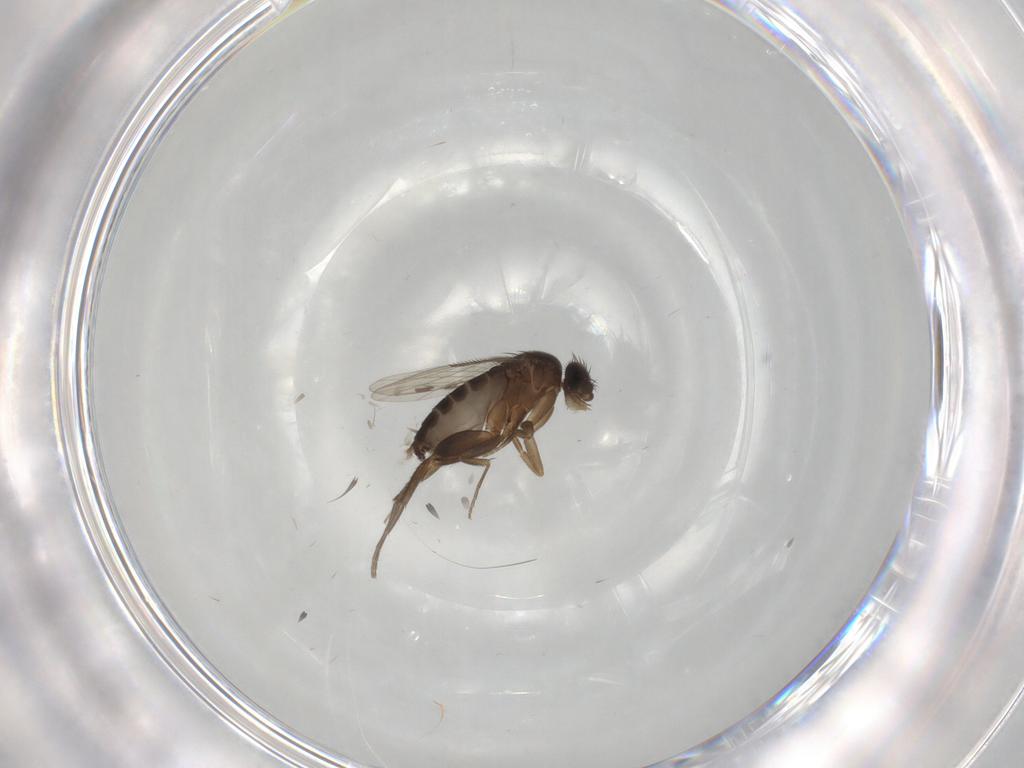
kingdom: Animalia
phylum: Arthropoda
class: Insecta
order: Diptera
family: Phoridae
